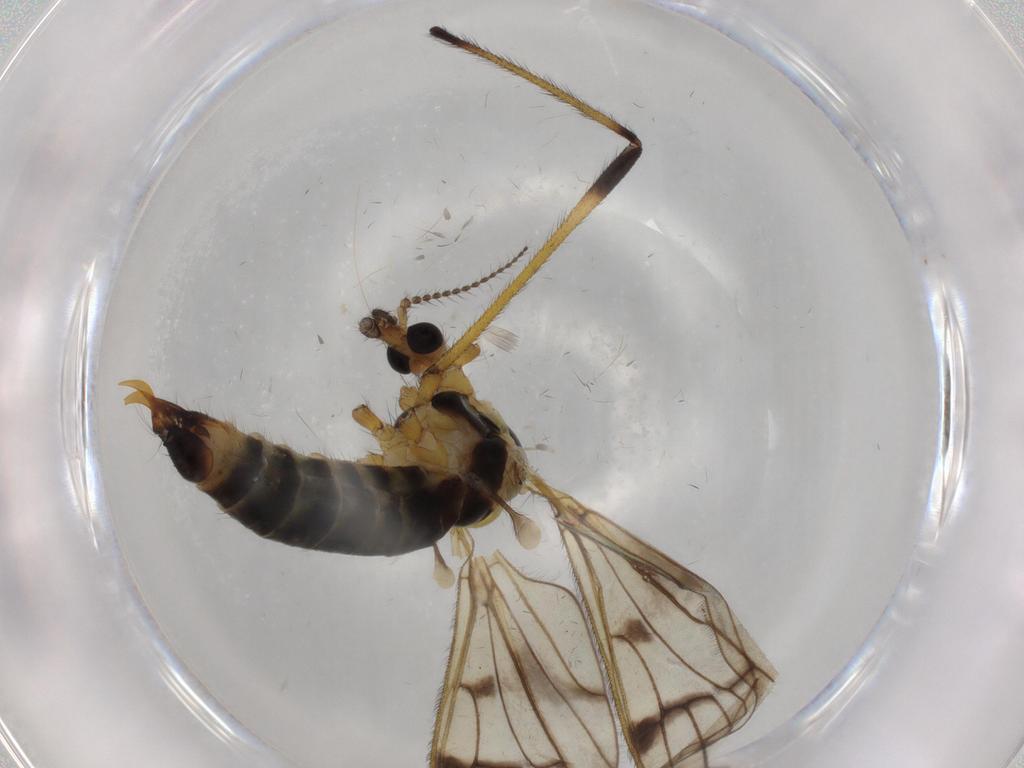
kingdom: Animalia
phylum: Arthropoda
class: Insecta
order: Diptera
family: Limoniidae
